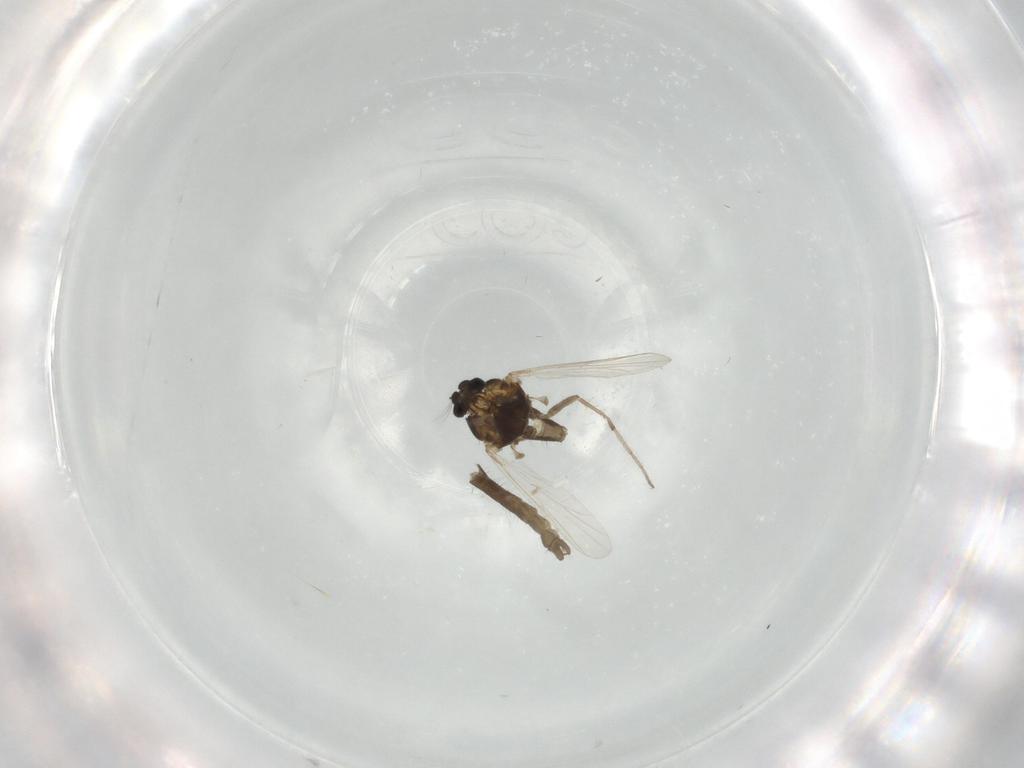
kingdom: Animalia
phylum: Arthropoda
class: Insecta
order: Diptera
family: Chironomidae
